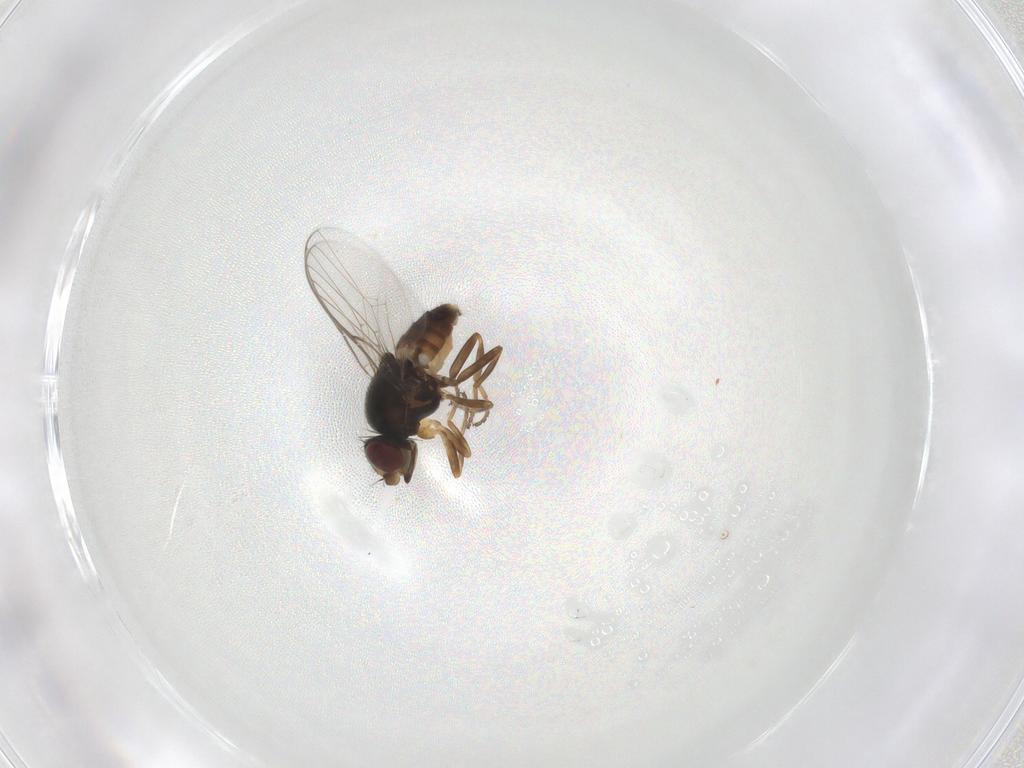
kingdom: Animalia
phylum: Arthropoda
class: Insecta
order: Diptera
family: Chloropidae
